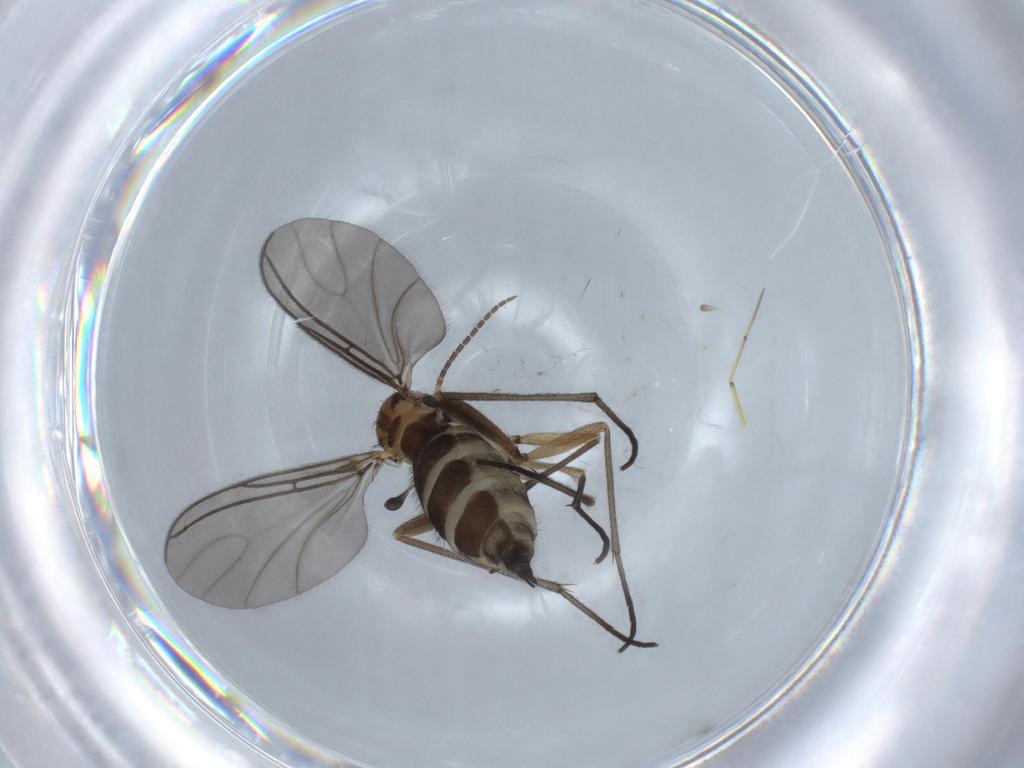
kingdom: Animalia
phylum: Arthropoda
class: Insecta
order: Diptera
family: Sciaridae
